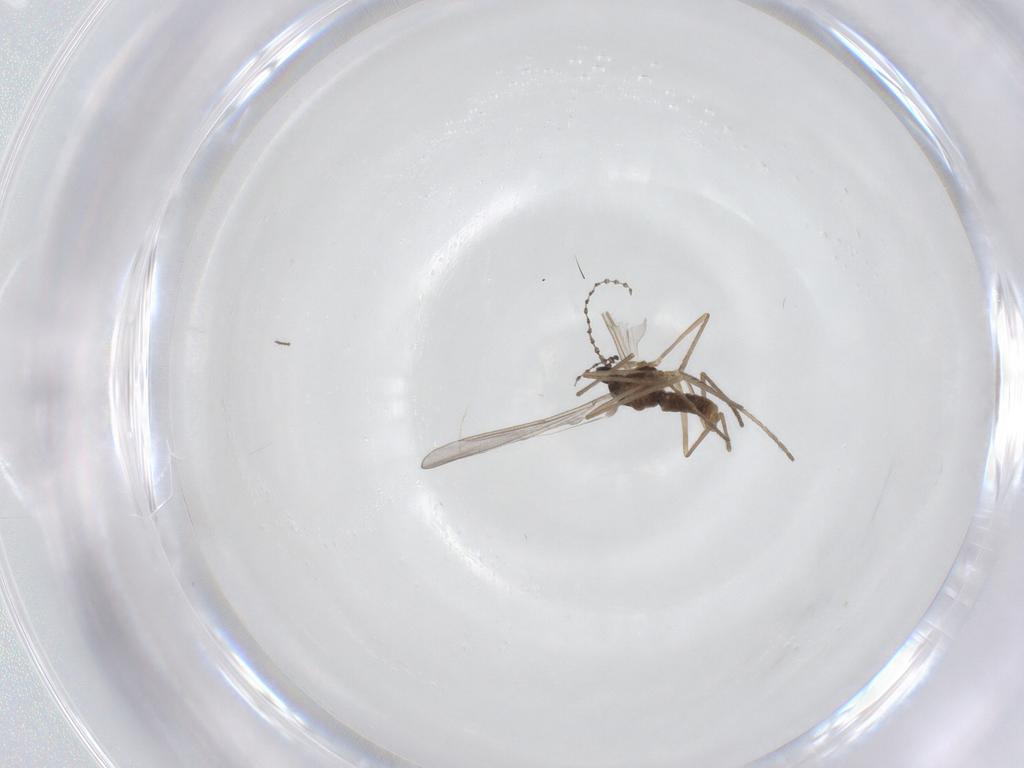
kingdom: Animalia
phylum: Arthropoda
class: Insecta
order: Diptera
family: Cecidomyiidae
